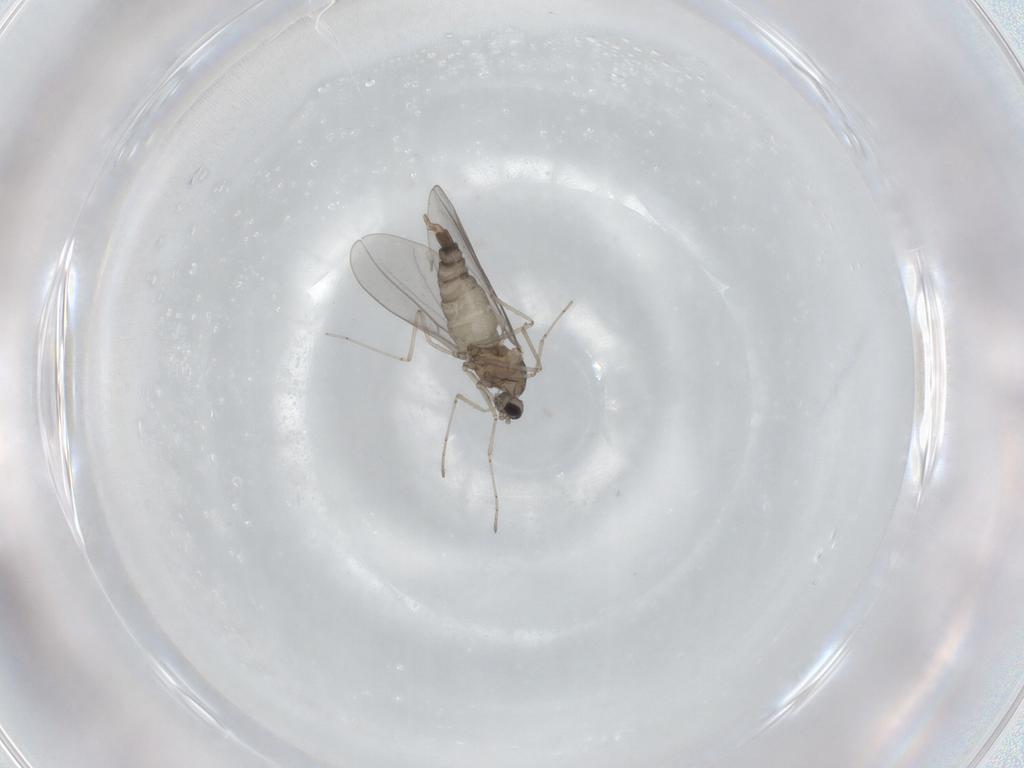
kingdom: Animalia
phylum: Arthropoda
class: Insecta
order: Diptera
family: Cecidomyiidae
